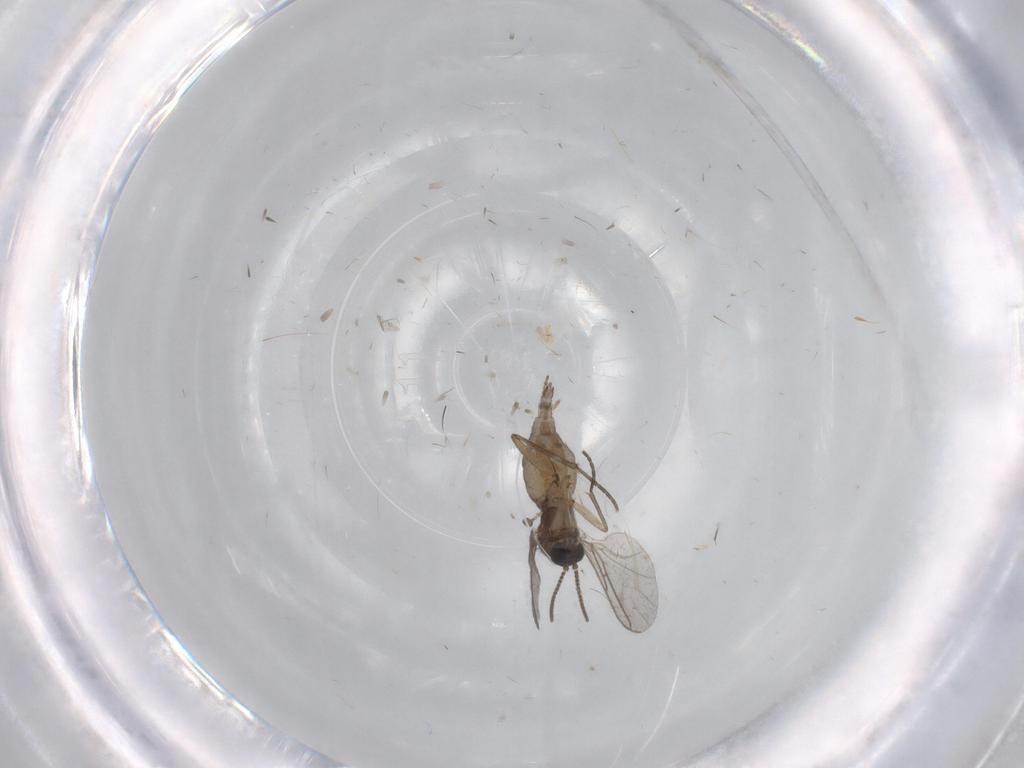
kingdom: Animalia
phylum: Arthropoda
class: Insecta
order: Diptera
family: Sciaridae
